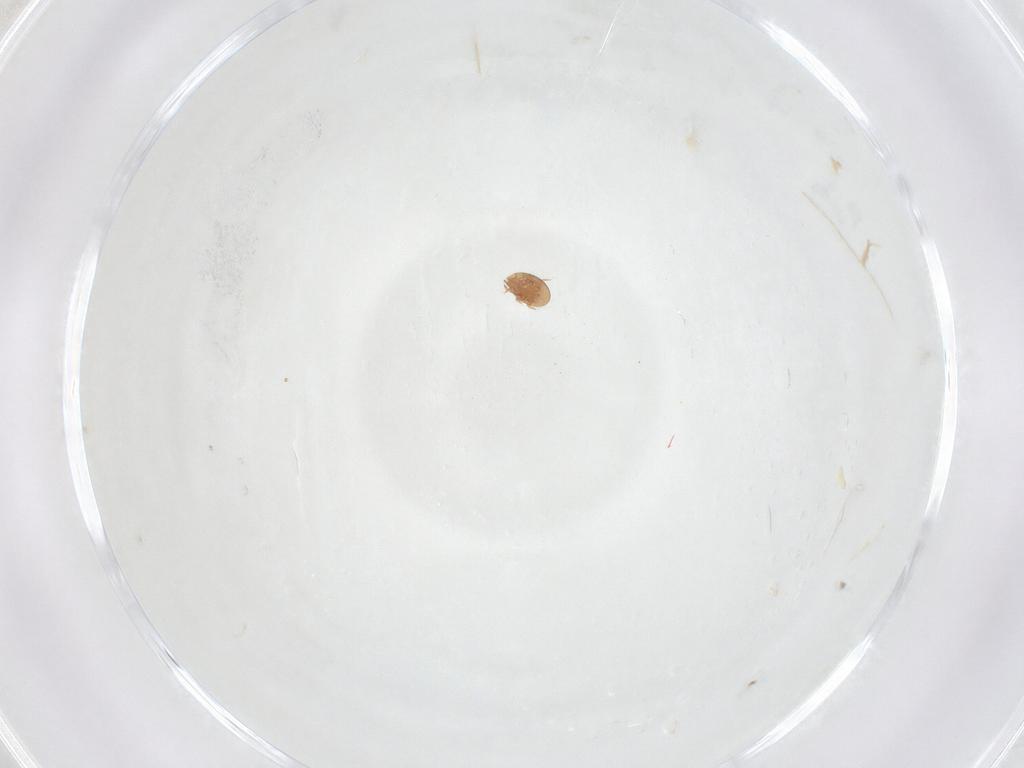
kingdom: Animalia
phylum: Arthropoda
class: Arachnida
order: Mesostigmata
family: Trematuridae
